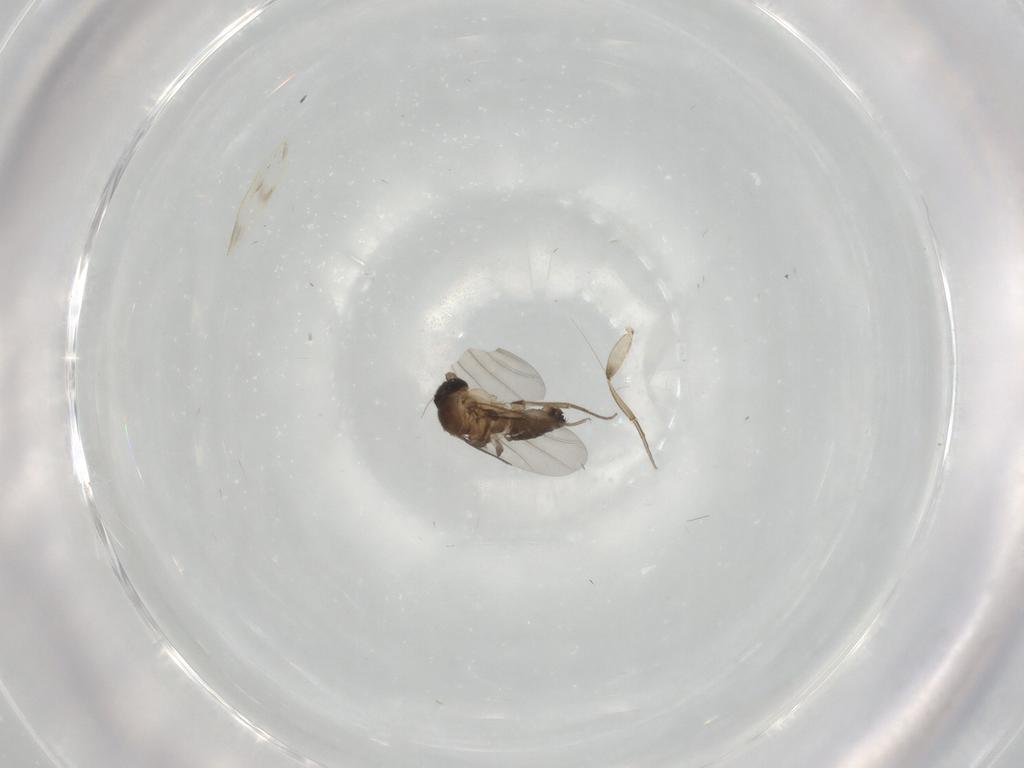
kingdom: Animalia
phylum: Arthropoda
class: Insecta
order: Diptera
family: Phoridae
